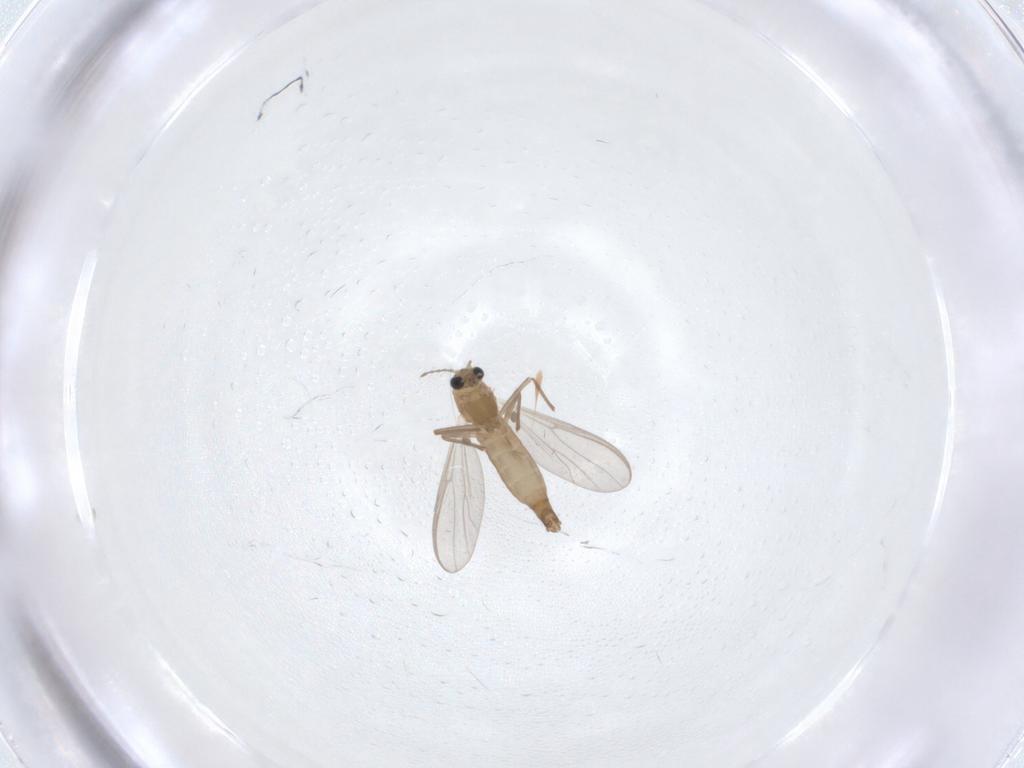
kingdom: Animalia
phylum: Arthropoda
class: Insecta
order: Diptera
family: Chironomidae
